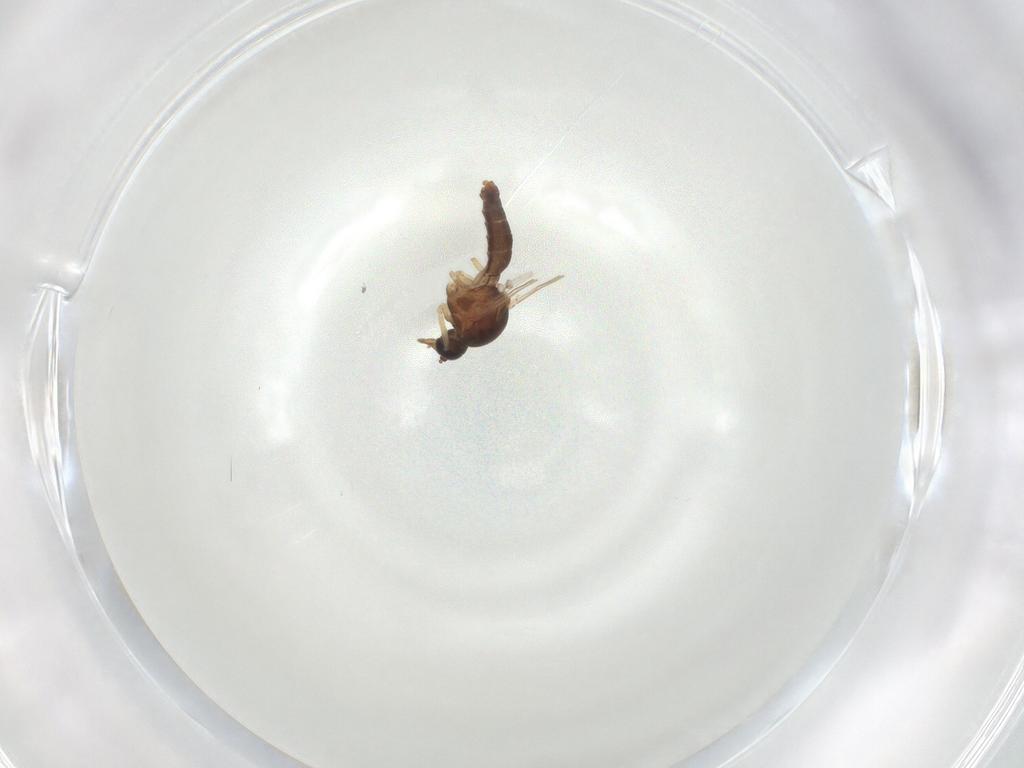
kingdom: Animalia
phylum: Arthropoda
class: Insecta
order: Diptera
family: Ceratopogonidae
